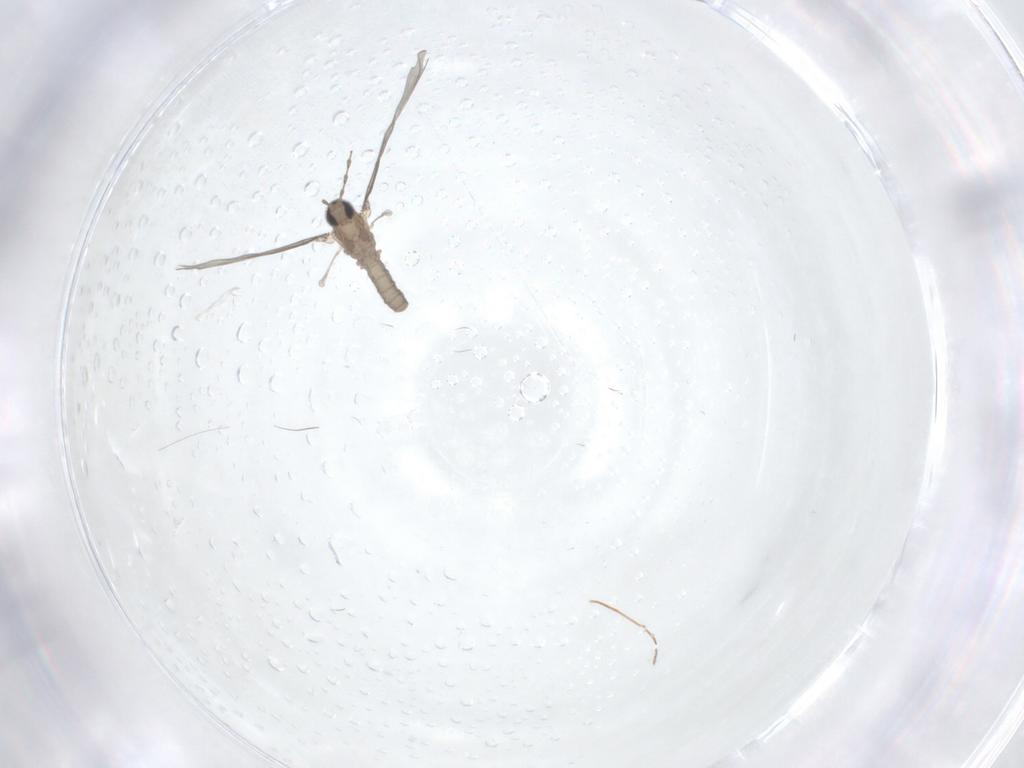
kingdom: Animalia
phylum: Arthropoda
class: Insecta
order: Diptera
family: Cecidomyiidae
